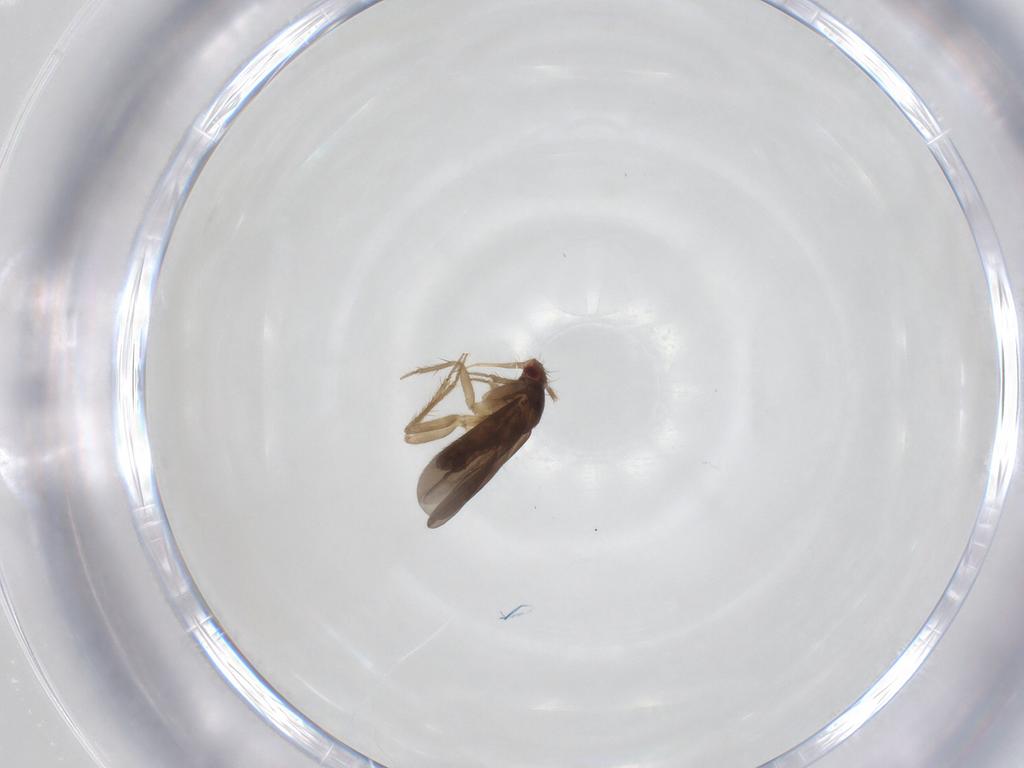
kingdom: Animalia
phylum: Arthropoda
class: Insecta
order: Hemiptera
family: Ceratocombidae
